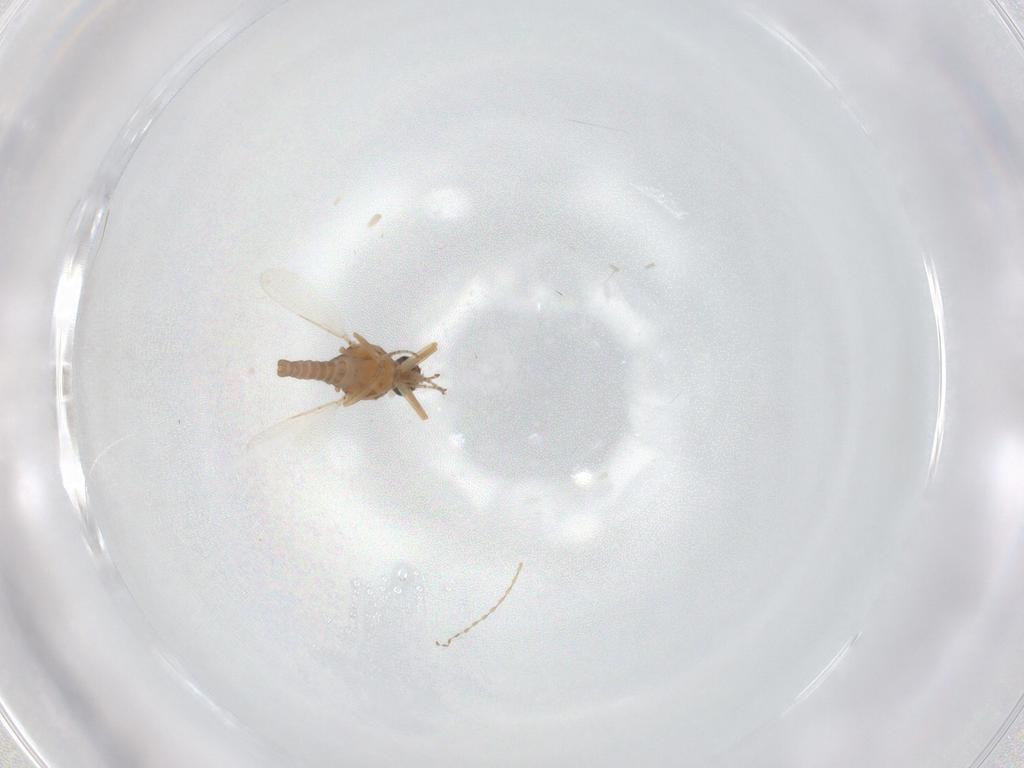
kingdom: Animalia
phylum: Arthropoda
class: Insecta
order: Diptera
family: Ceratopogonidae
